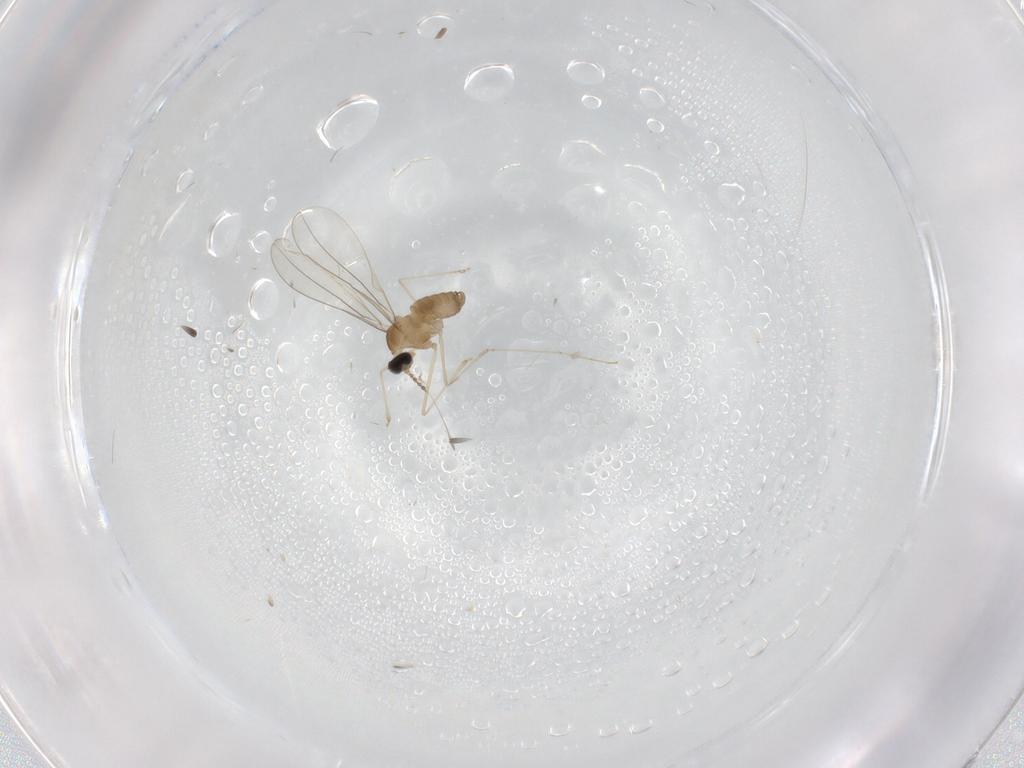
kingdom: Animalia
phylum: Arthropoda
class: Insecta
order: Diptera
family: Cecidomyiidae
